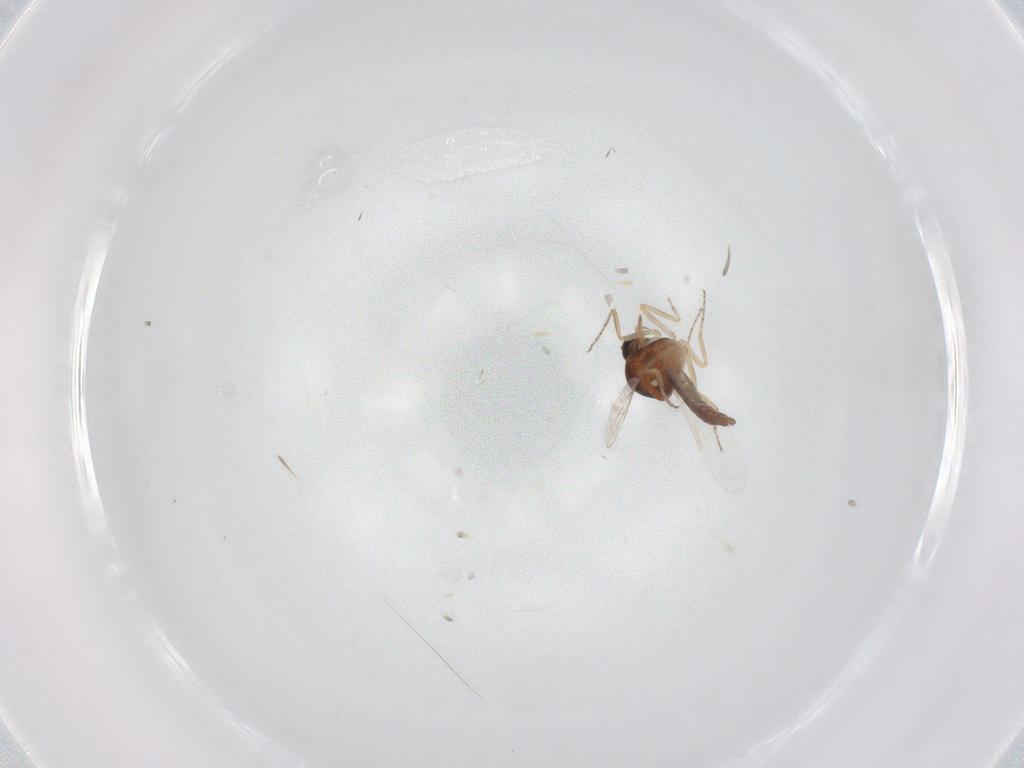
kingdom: Animalia
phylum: Arthropoda
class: Insecta
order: Diptera
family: Ceratopogonidae
